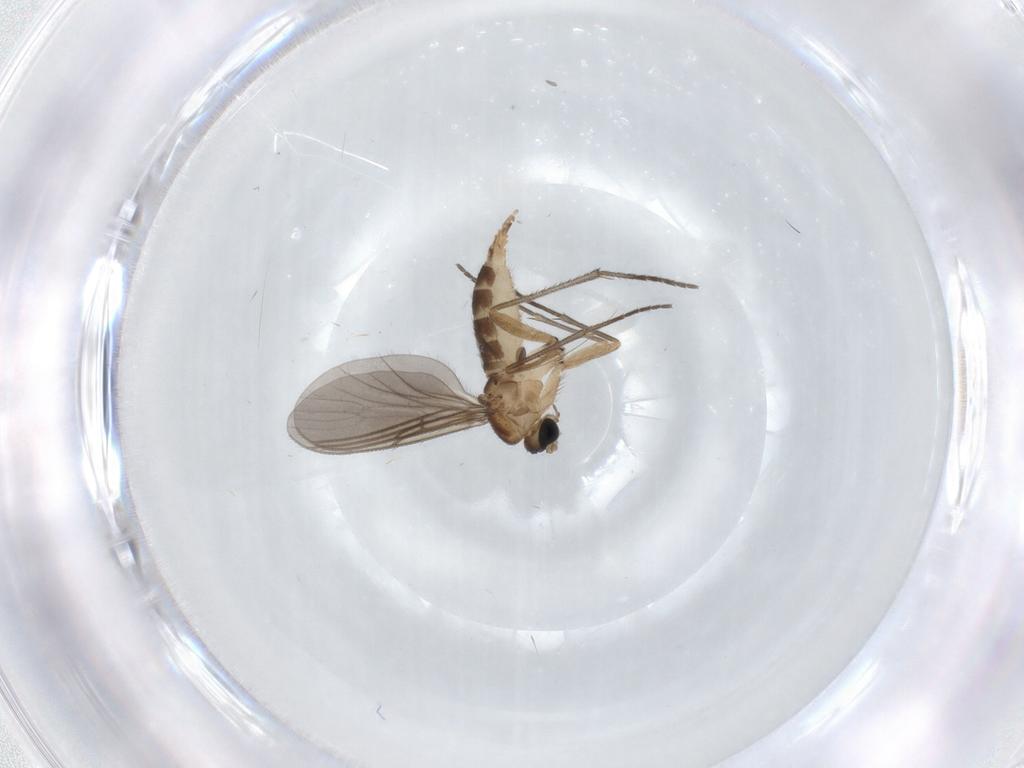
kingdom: Animalia
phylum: Arthropoda
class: Insecta
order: Diptera
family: Sciaridae
